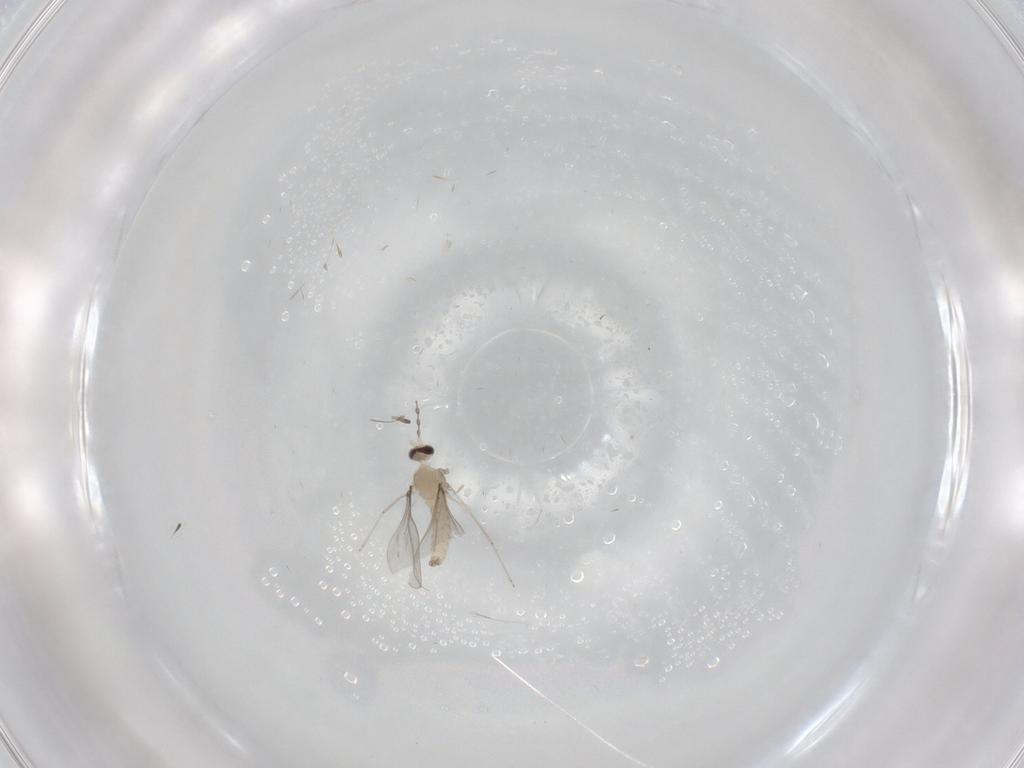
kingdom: Animalia
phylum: Arthropoda
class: Insecta
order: Diptera
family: Cecidomyiidae
